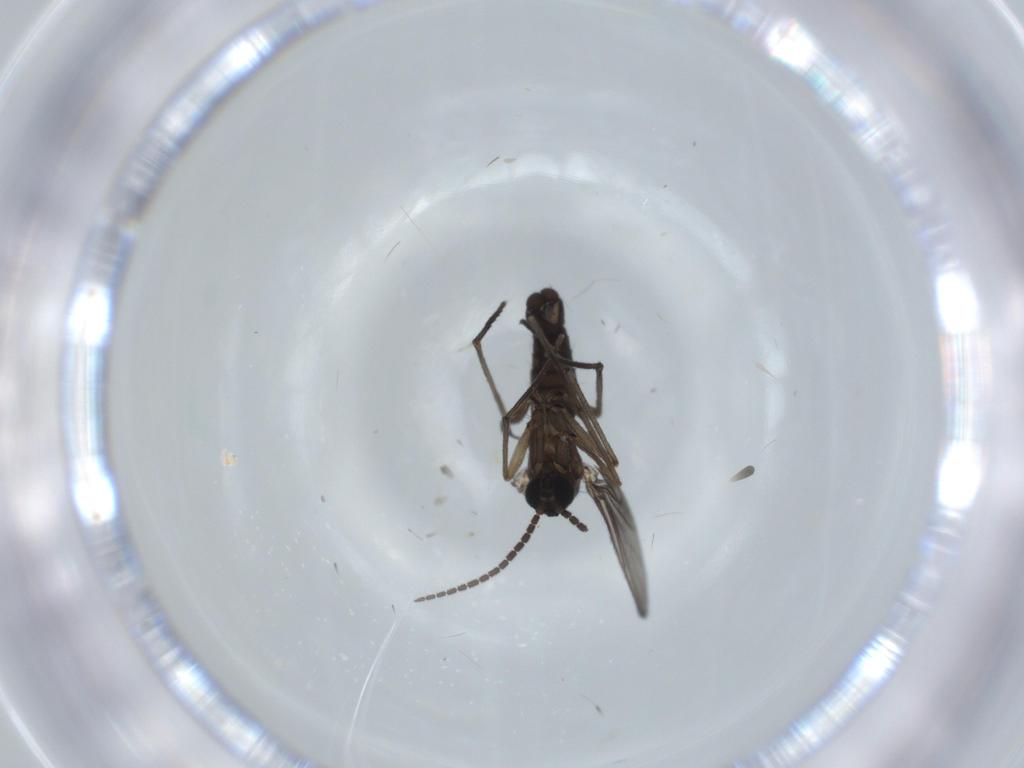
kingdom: Animalia
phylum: Arthropoda
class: Insecta
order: Diptera
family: Sciaridae
